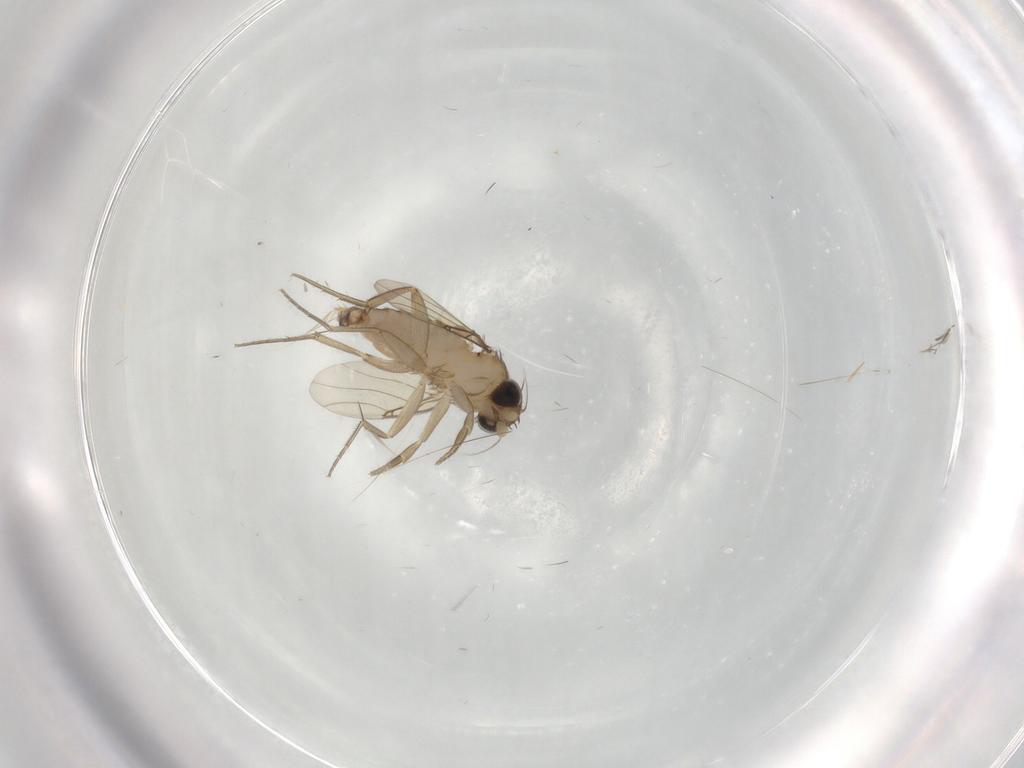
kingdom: Animalia
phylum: Arthropoda
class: Insecta
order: Diptera
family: Phoridae
